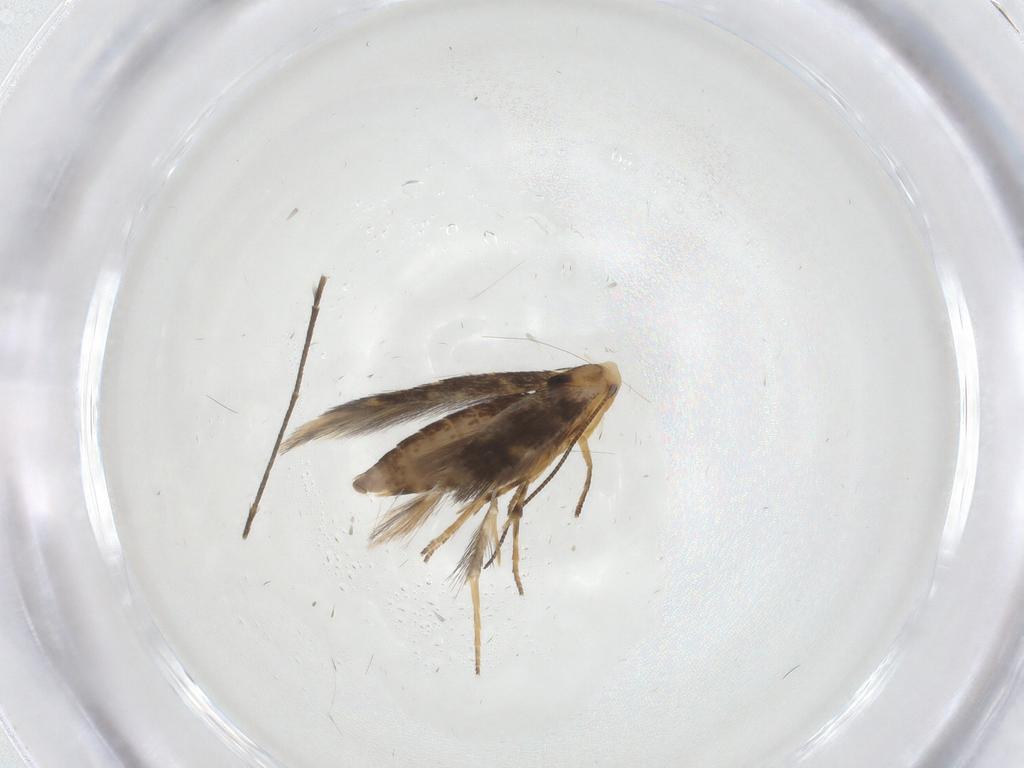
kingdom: Animalia
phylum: Arthropoda
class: Insecta
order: Lepidoptera
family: Notodontidae
